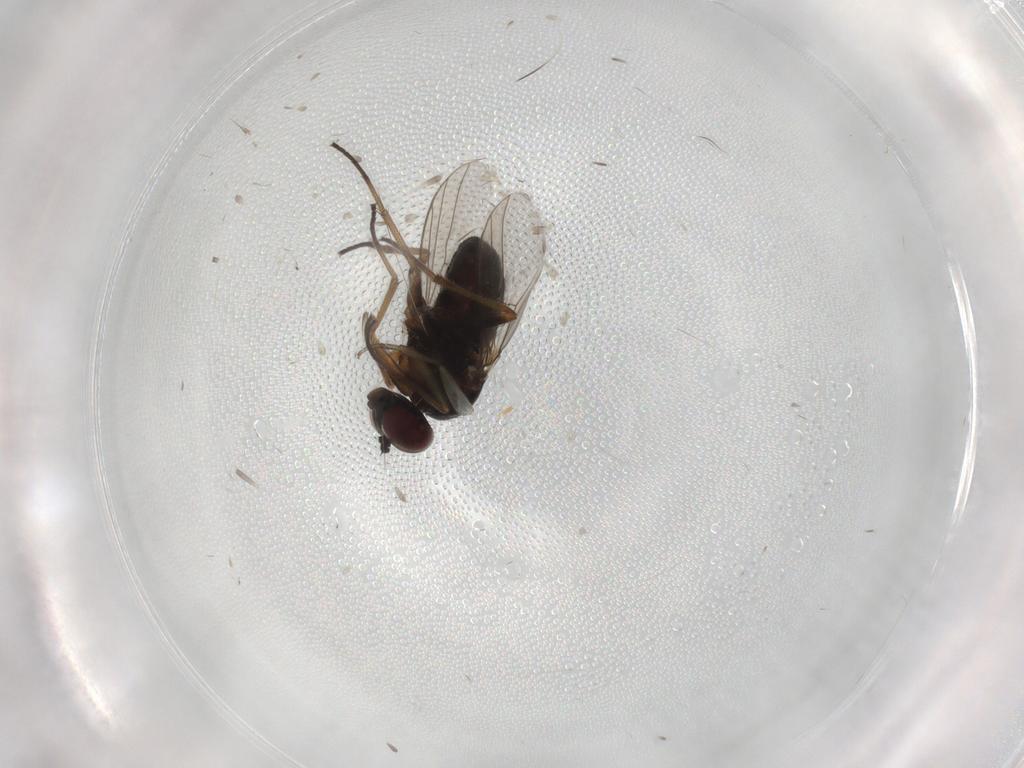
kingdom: Animalia
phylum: Arthropoda
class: Insecta
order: Diptera
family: Dolichopodidae
